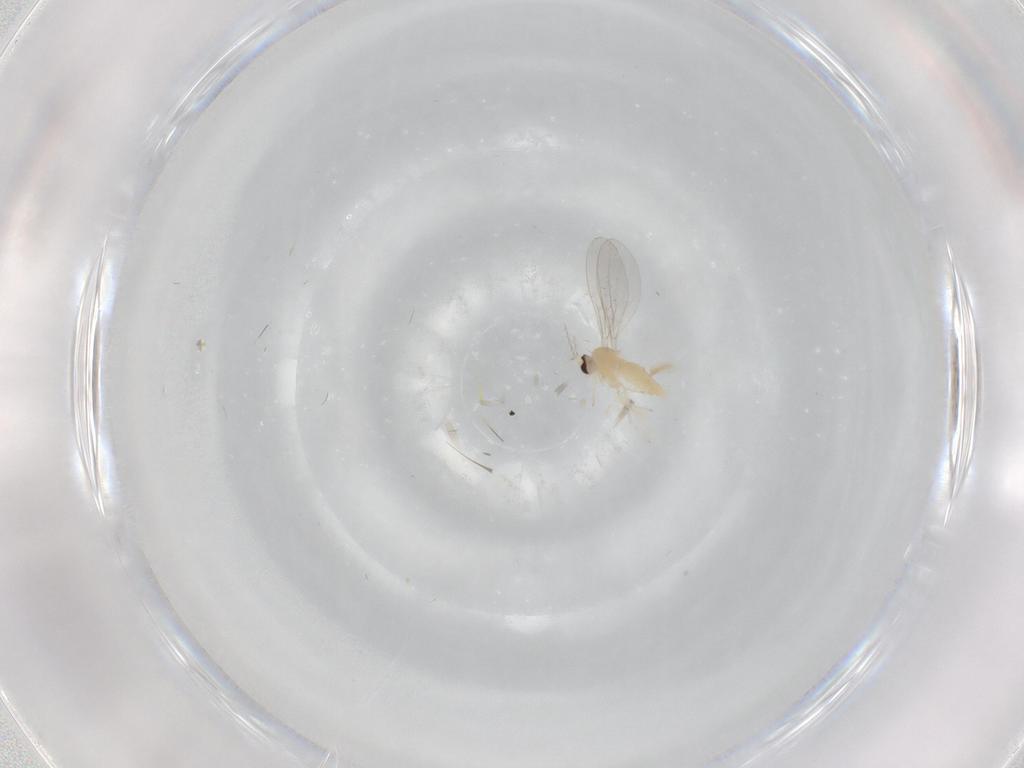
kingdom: Animalia
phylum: Arthropoda
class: Insecta
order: Diptera
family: Cecidomyiidae
